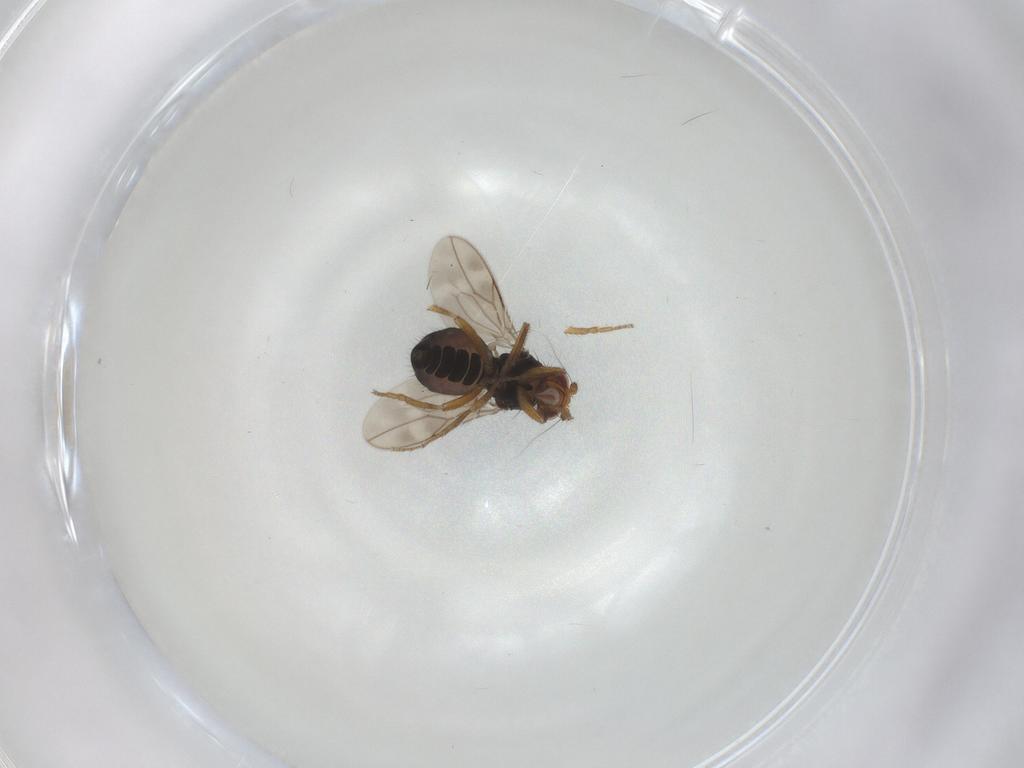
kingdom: Animalia
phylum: Arthropoda
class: Insecta
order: Diptera
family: Sphaeroceridae
